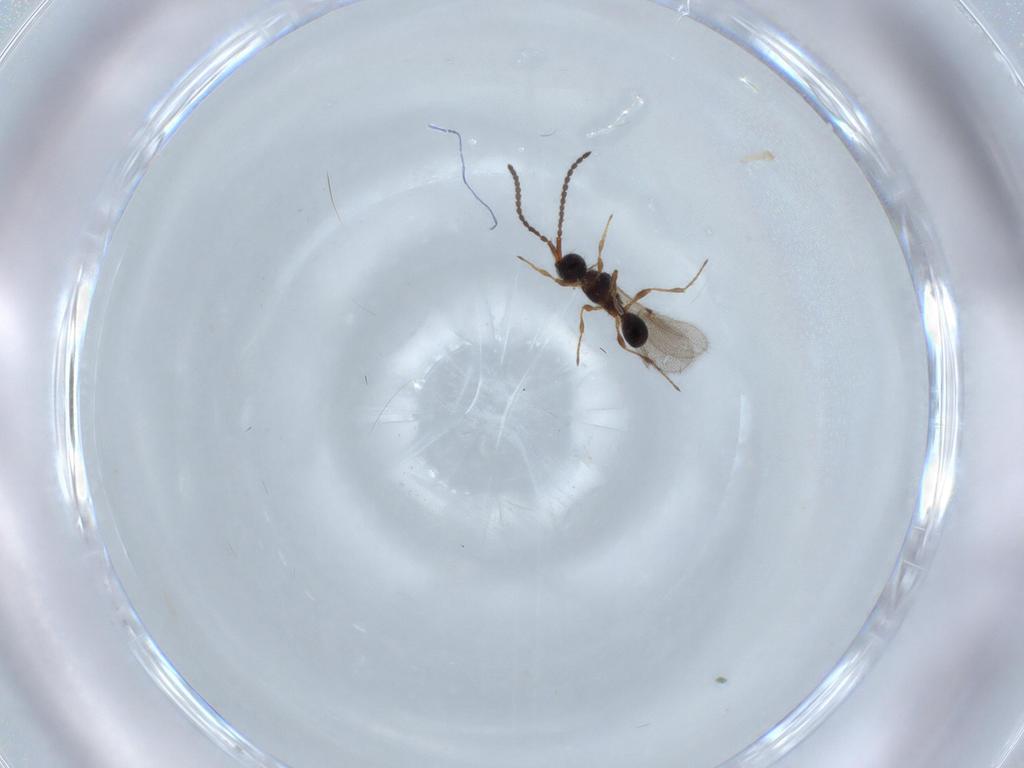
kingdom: Animalia
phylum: Arthropoda
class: Insecta
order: Hymenoptera
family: Diapriidae
